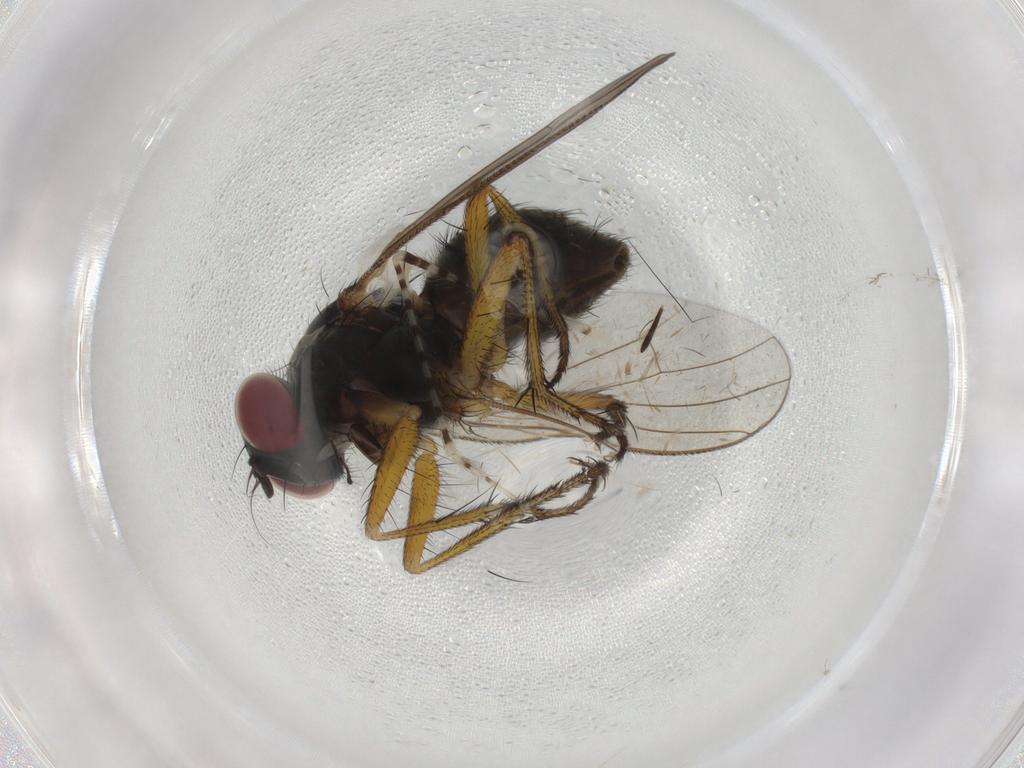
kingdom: Animalia
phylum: Arthropoda
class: Insecta
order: Diptera
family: Muscidae
